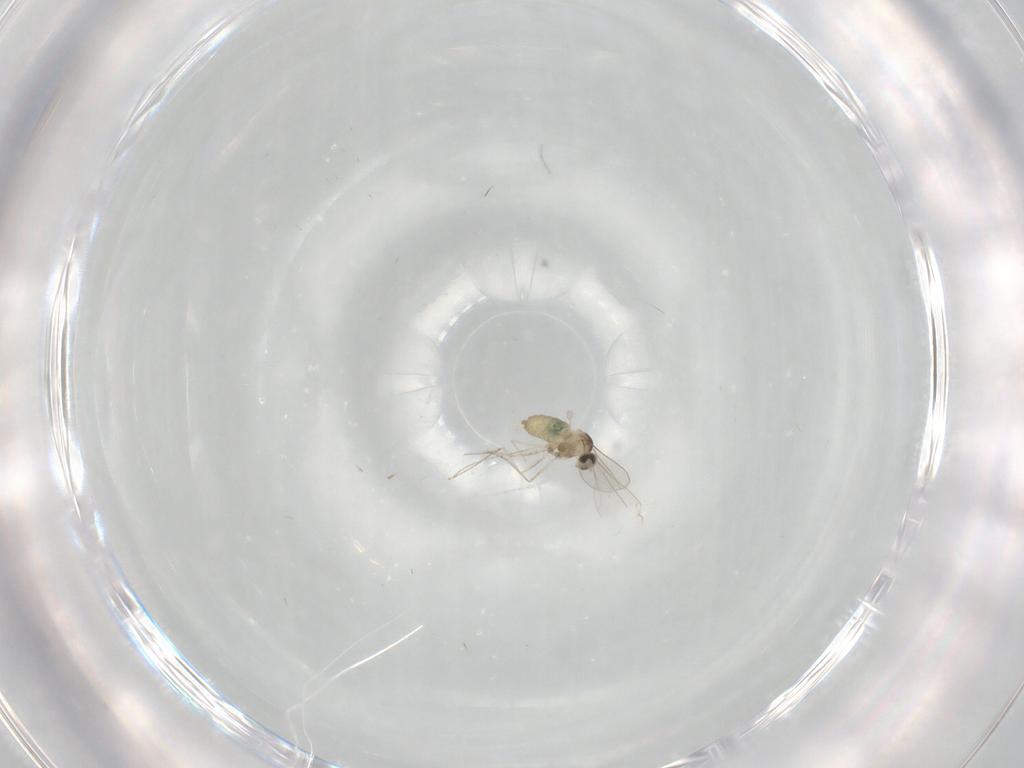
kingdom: Animalia
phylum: Arthropoda
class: Insecta
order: Diptera
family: Cecidomyiidae
